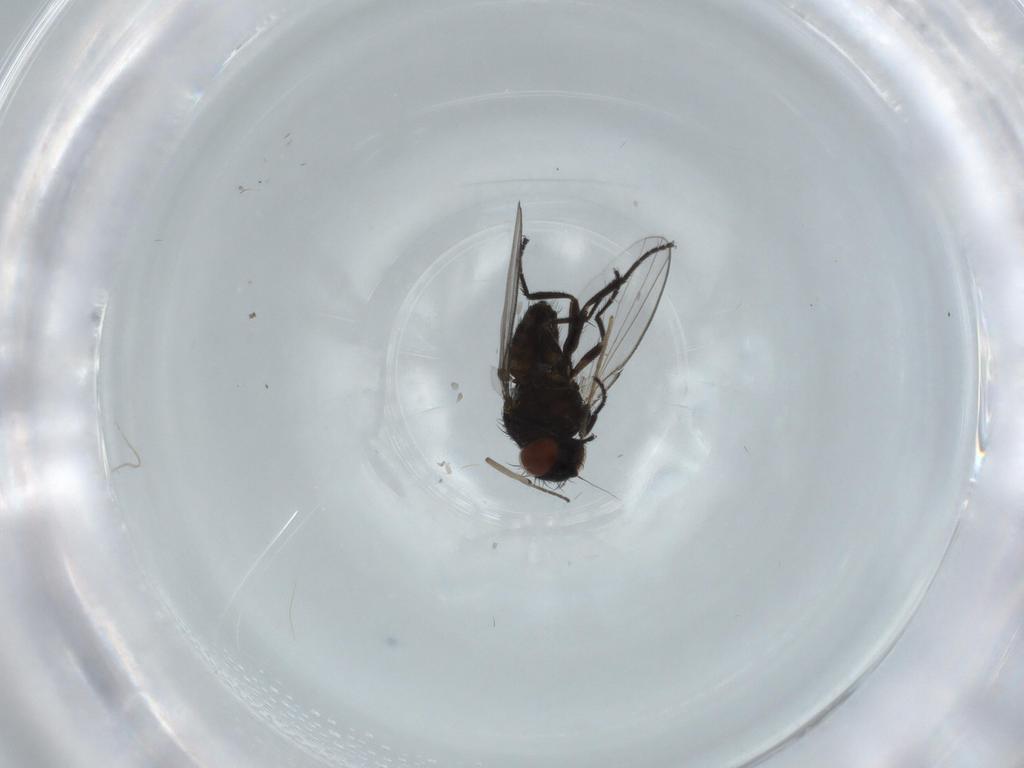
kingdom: Animalia
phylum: Arthropoda
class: Insecta
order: Diptera
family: Milichiidae
